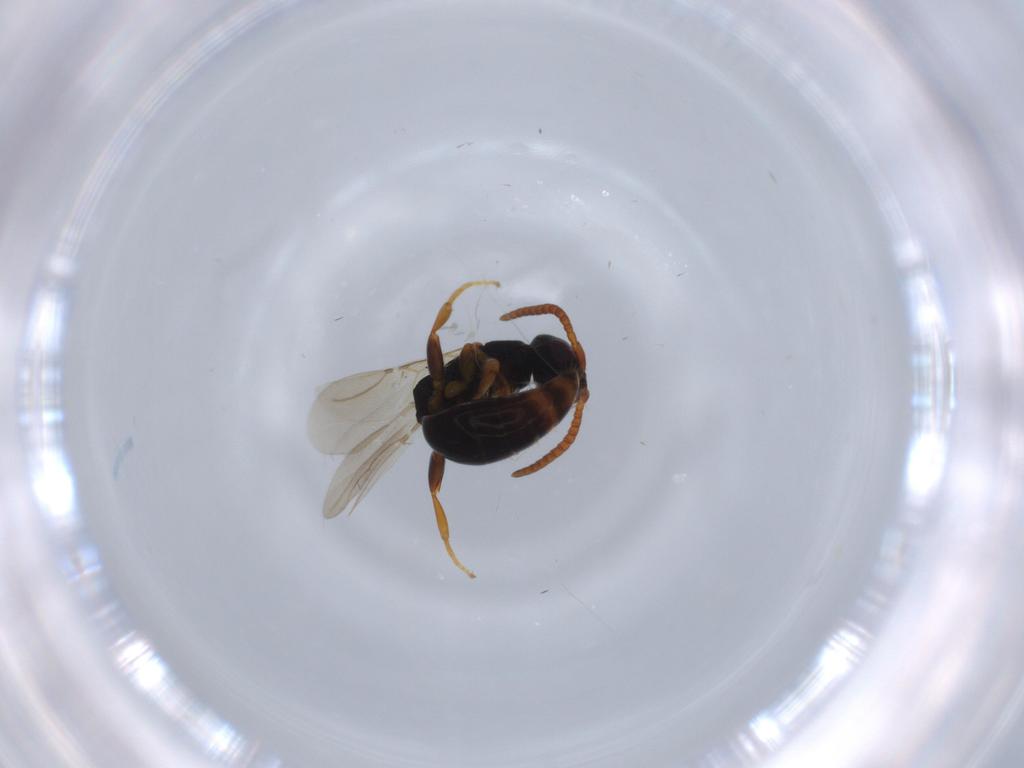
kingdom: Animalia
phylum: Arthropoda
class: Insecta
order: Hymenoptera
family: Bethylidae
